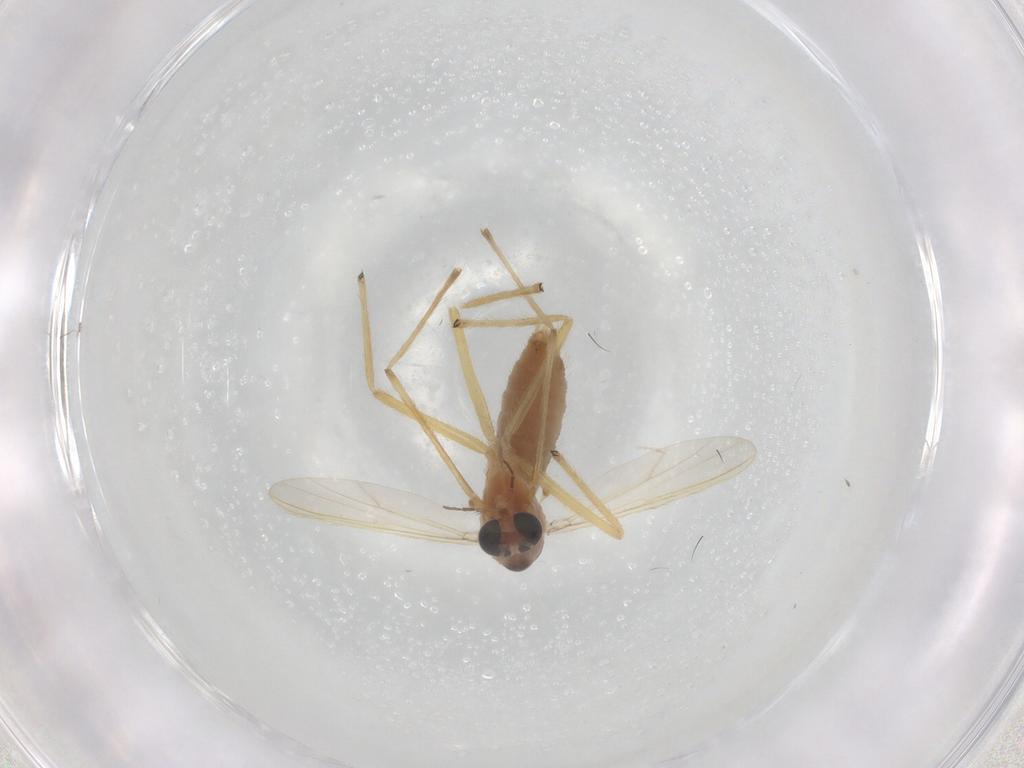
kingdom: Animalia
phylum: Arthropoda
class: Insecta
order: Diptera
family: Chironomidae
